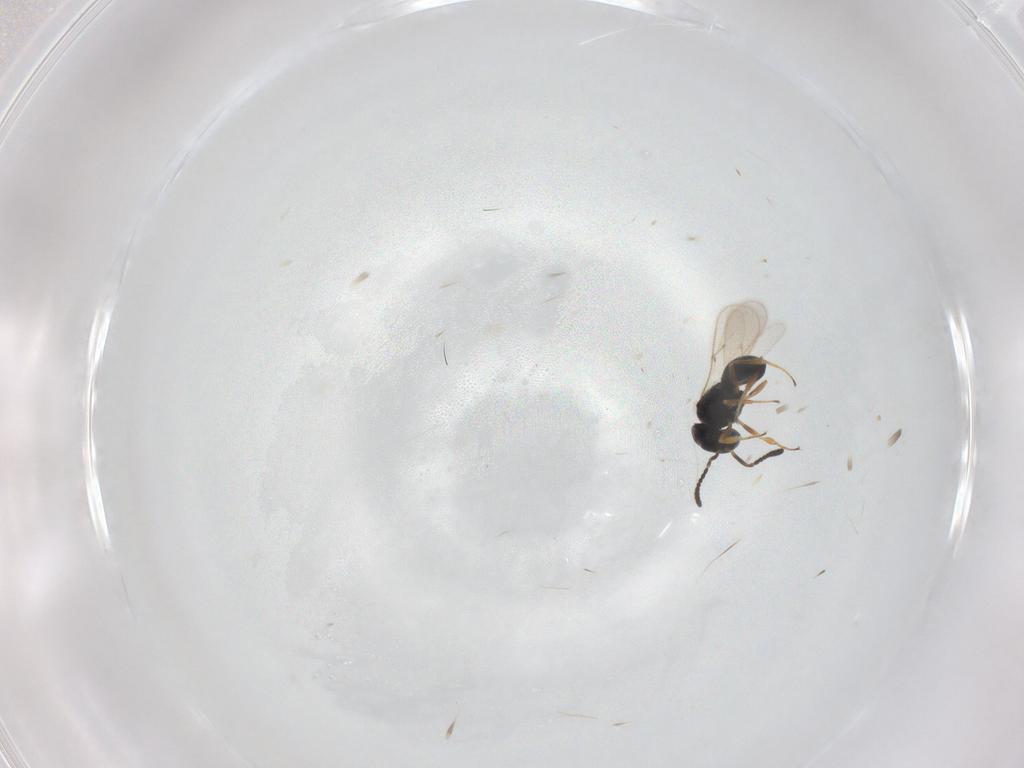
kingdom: Animalia
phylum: Arthropoda
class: Insecta
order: Hymenoptera
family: Scelionidae
